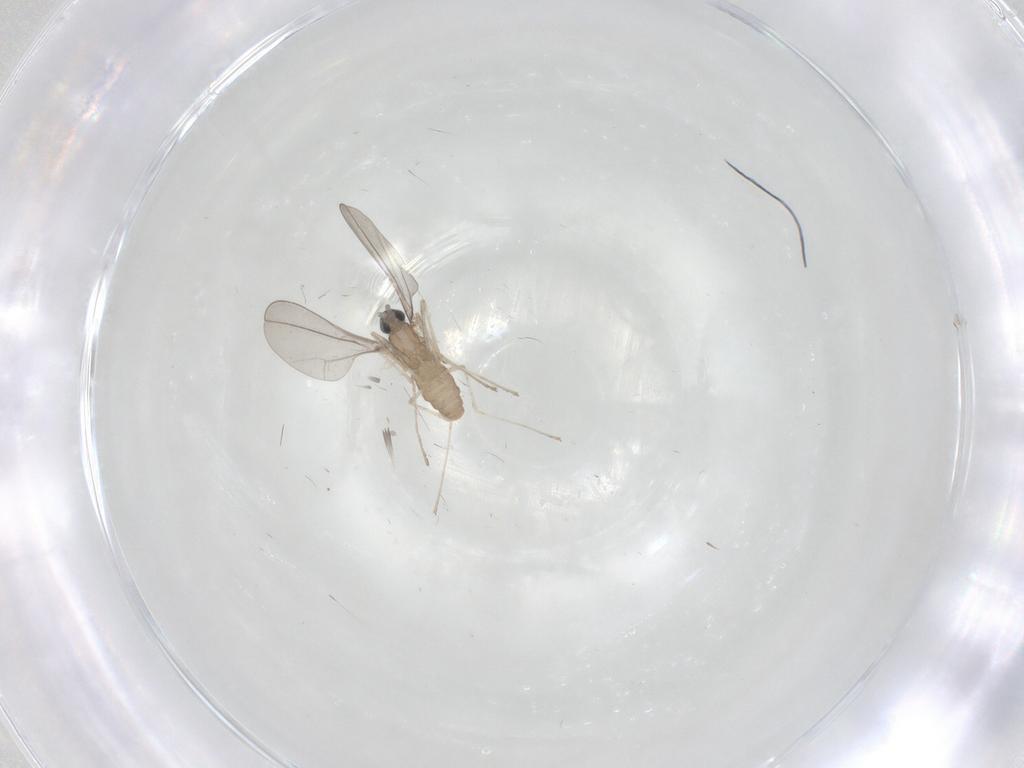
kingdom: Animalia
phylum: Arthropoda
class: Insecta
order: Diptera
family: Cecidomyiidae
